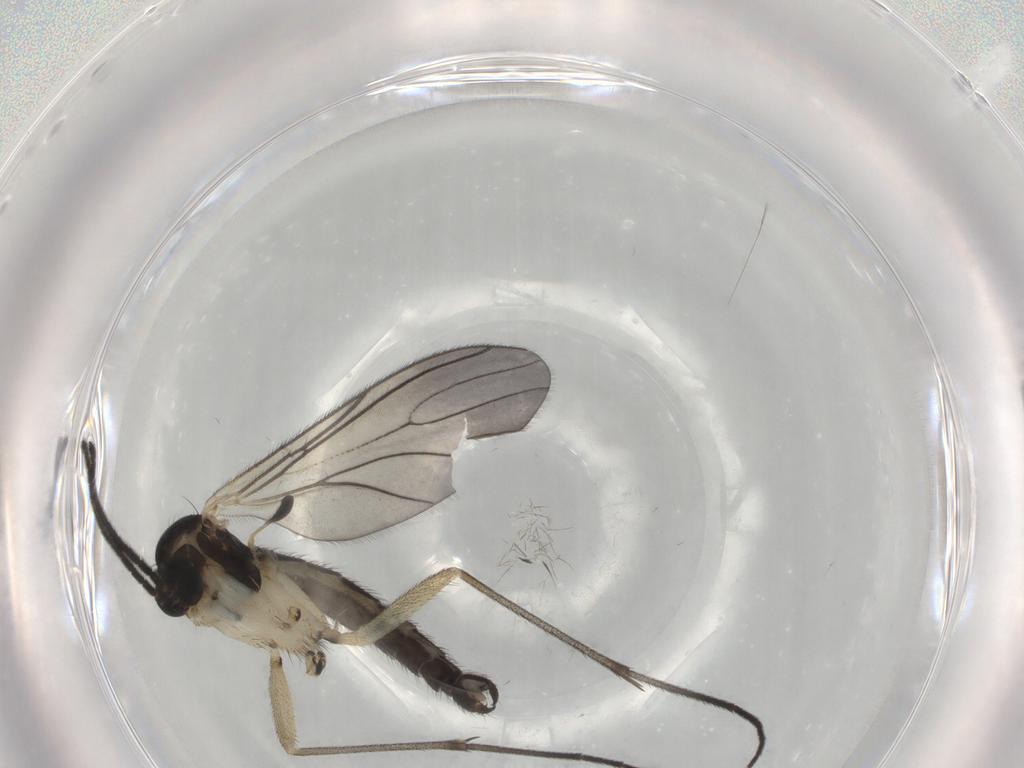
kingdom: Animalia
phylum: Arthropoda
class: Insecta
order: Diptera
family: Mycetophilidae
